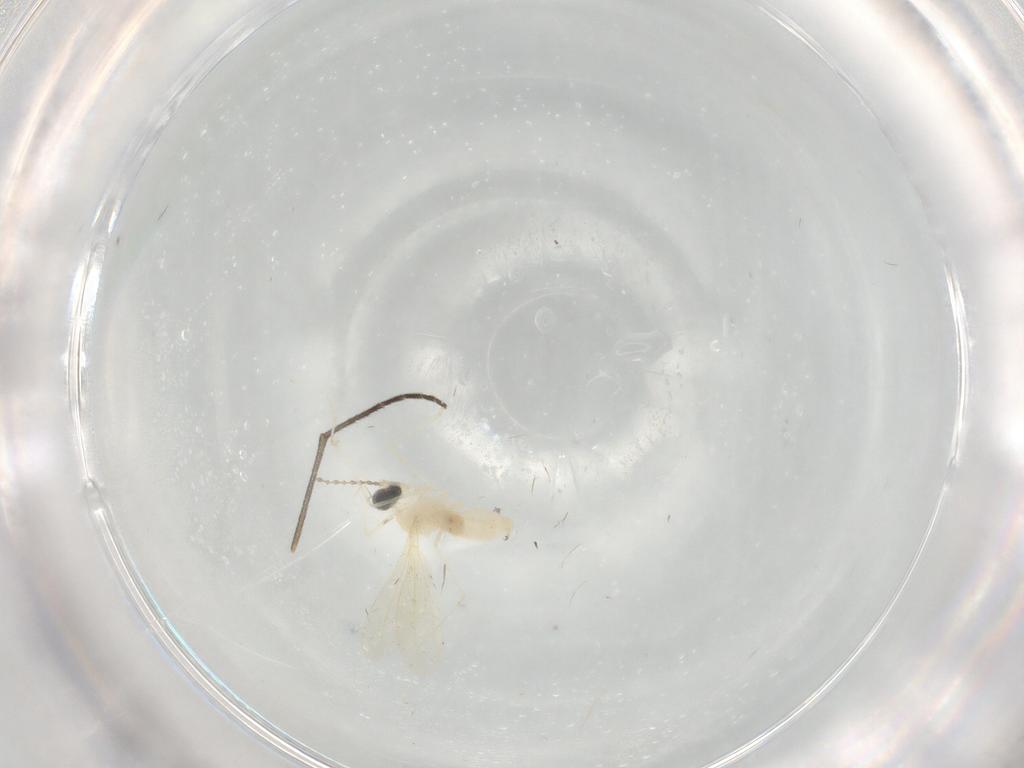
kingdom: Animalia
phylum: Arthropoda
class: Insecta
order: Diptera
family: Cecidomyiidae
